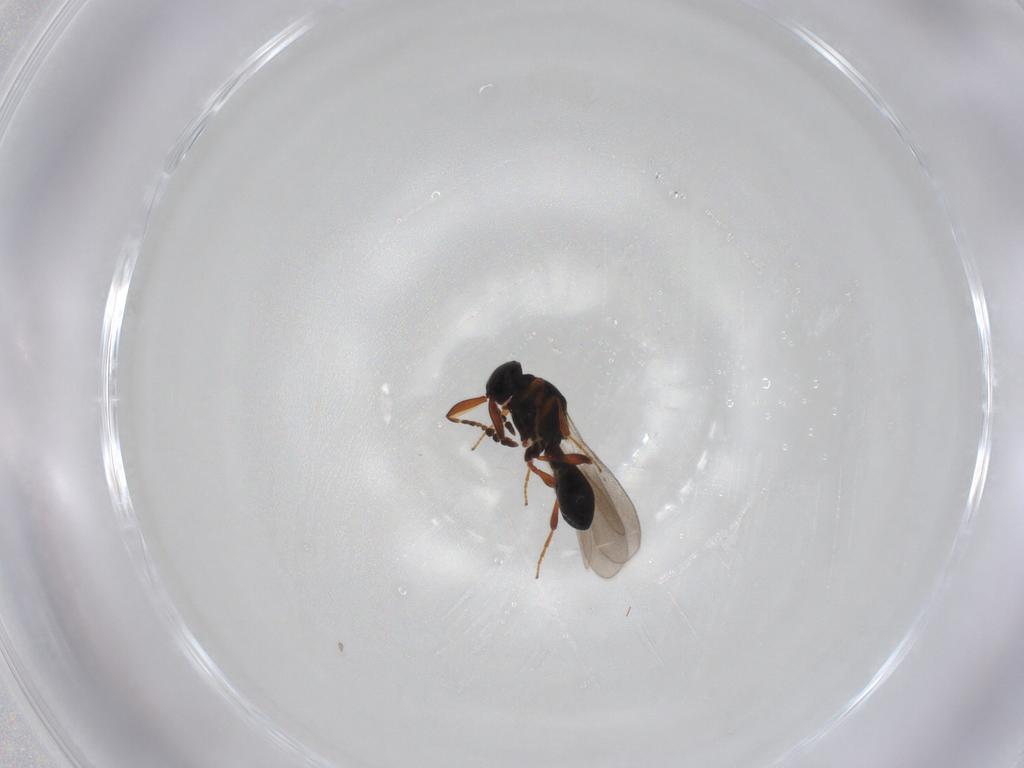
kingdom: Animalia
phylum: Arthropoda
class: Insecta
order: Hymenoptera
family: Platygastridae
